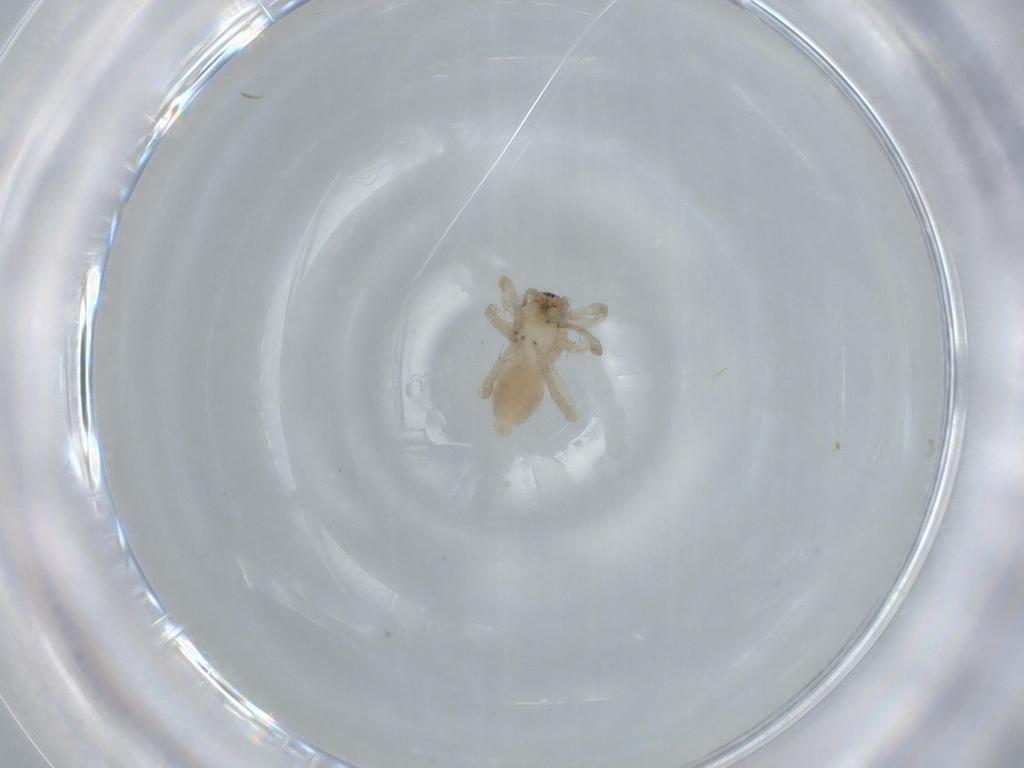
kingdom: Animalia
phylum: Arthropoda
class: Arachnida
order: Araneae
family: Anyphaenidae
